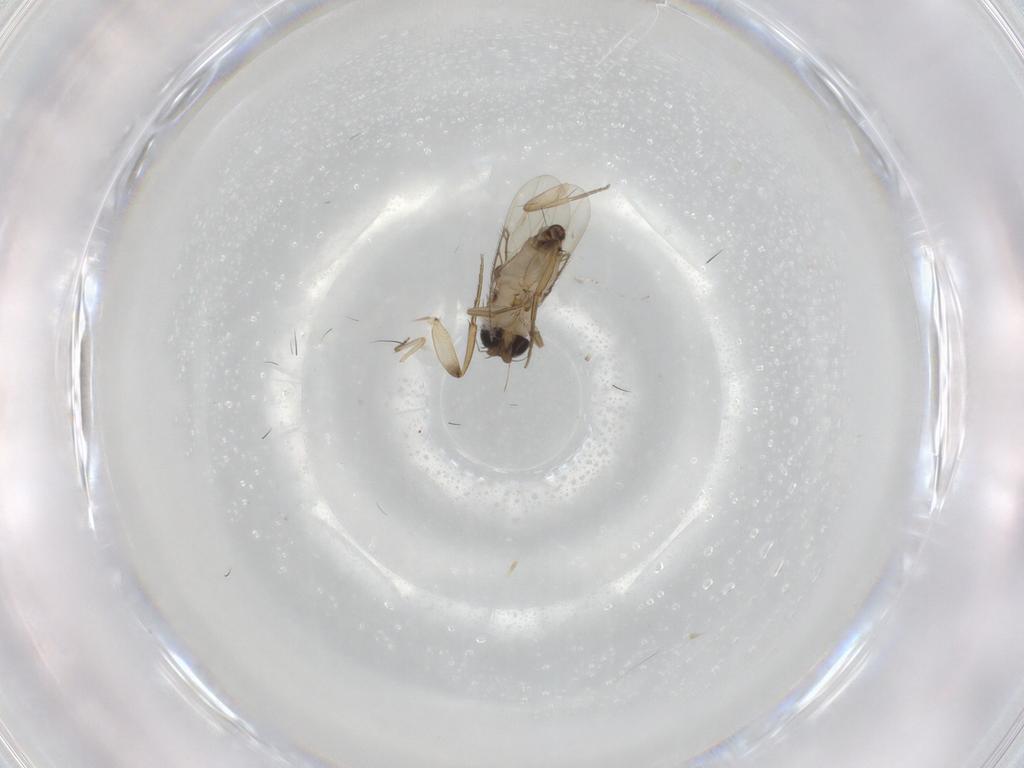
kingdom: Animalia
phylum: Arthropoda
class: Insecta
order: Diptera
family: Phoridae
